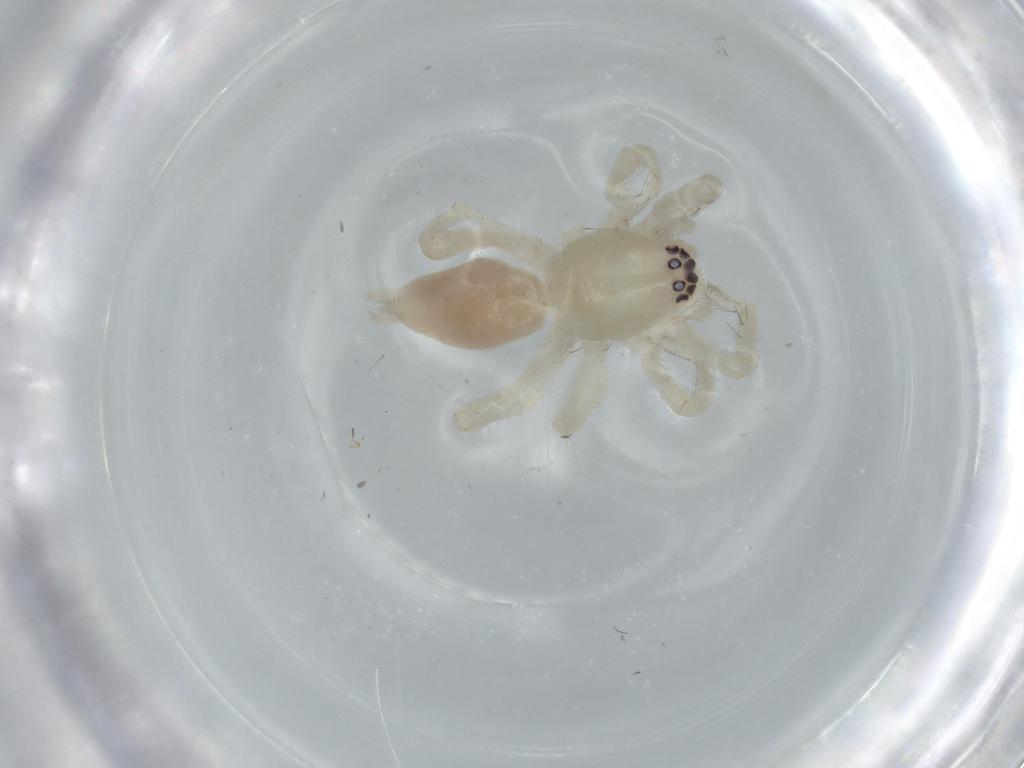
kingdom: Animalia
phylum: Arthropoda
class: Arachnida
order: Araneae
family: Linyphiidae
